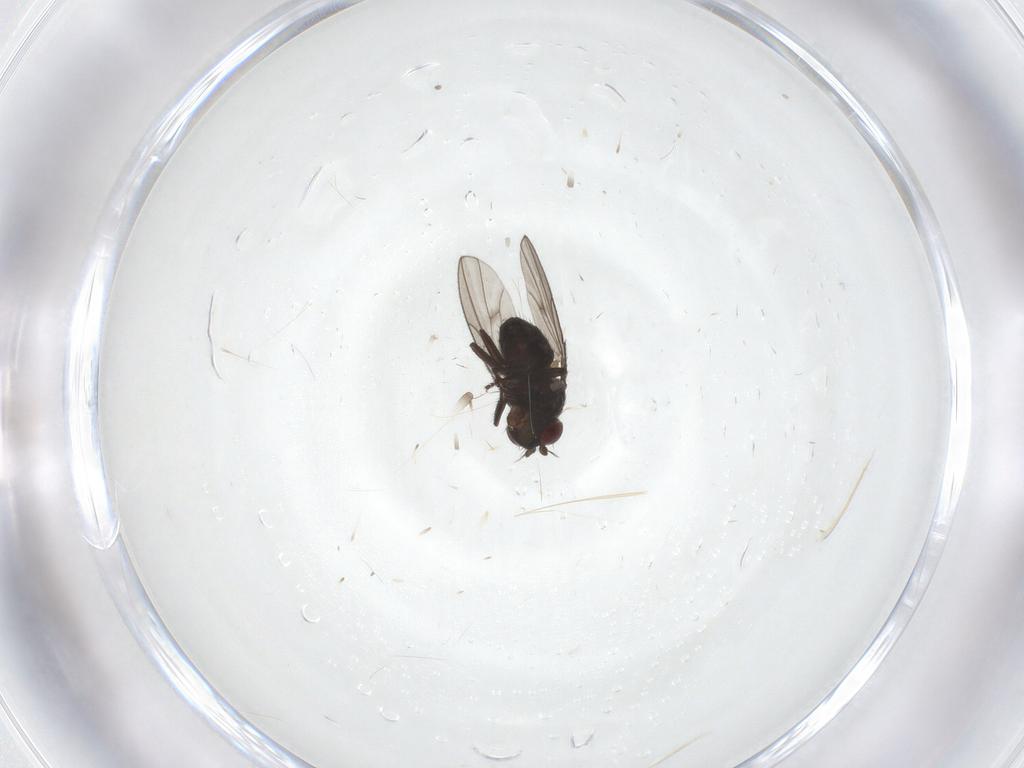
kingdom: Animalia
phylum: Arthropoda
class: Insecta
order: Diptera
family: Ephydridae
